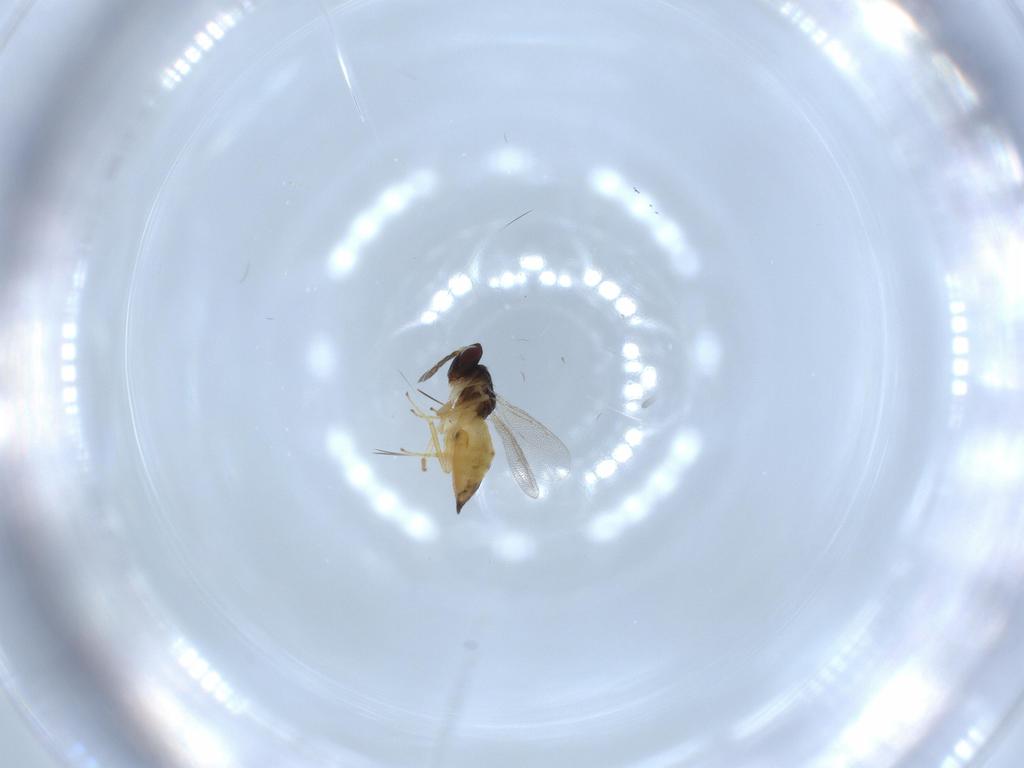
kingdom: Animalia
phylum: Arthropoda
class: Insecta
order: Hymenoptera
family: Eulophidae
